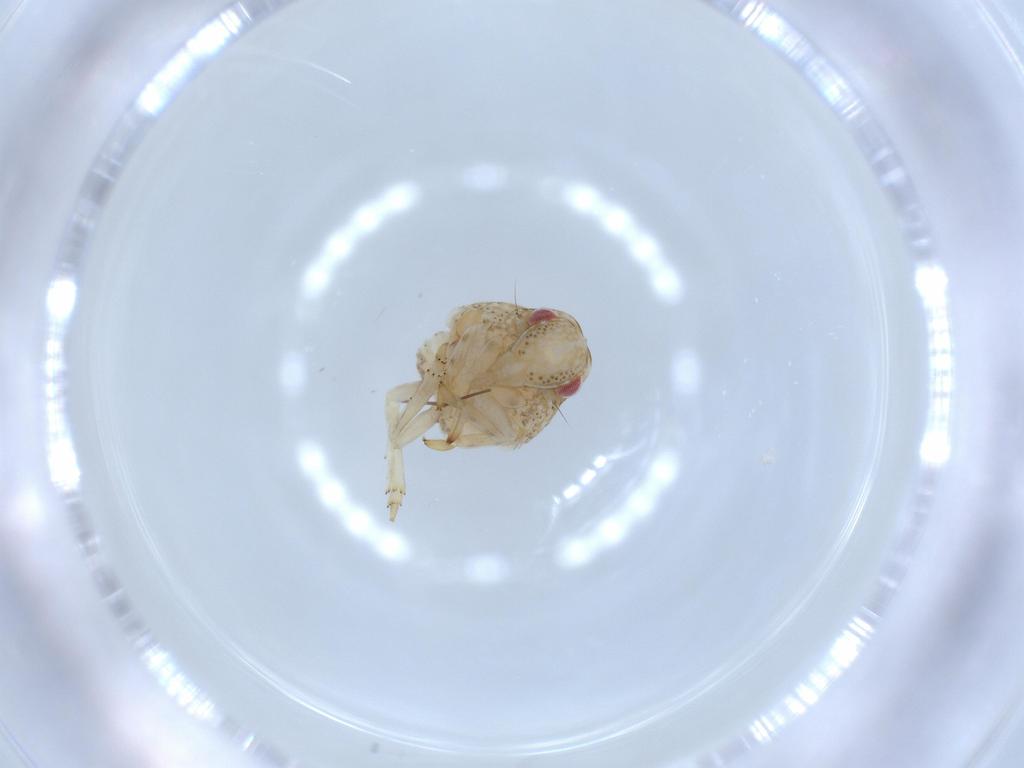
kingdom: Animalia
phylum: Arthropoda
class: Insecta
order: Hemiptera
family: Acanaloniidae
